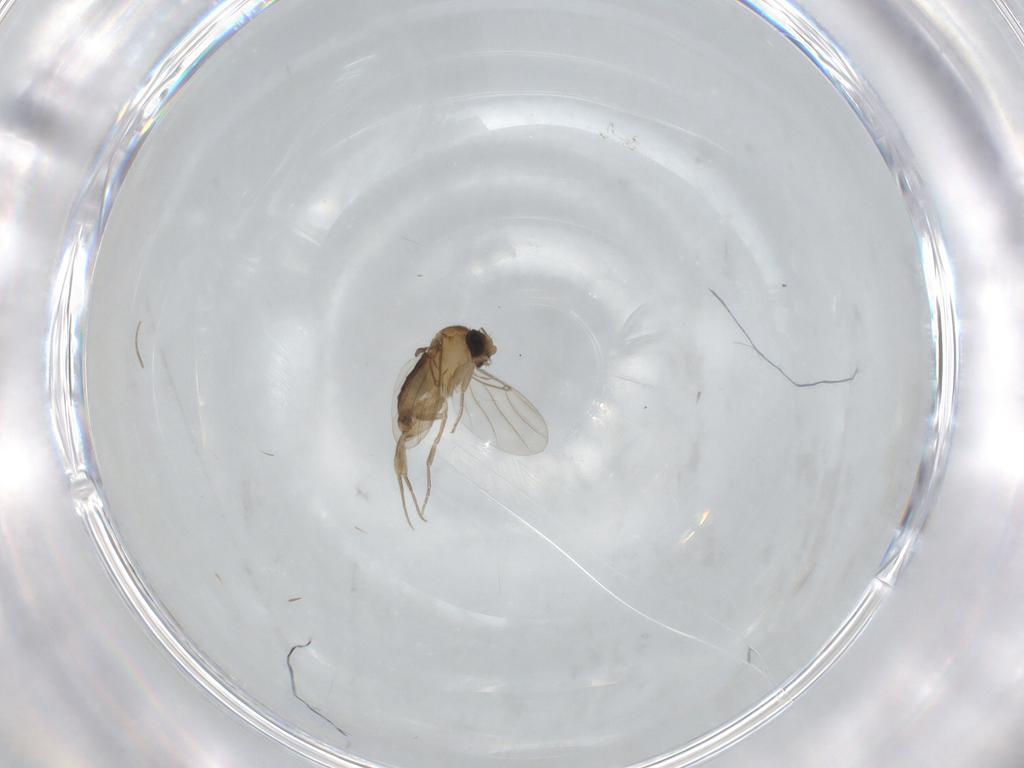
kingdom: Animalia
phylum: Arthropoda
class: Insecta
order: Diptera
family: Phoridae
